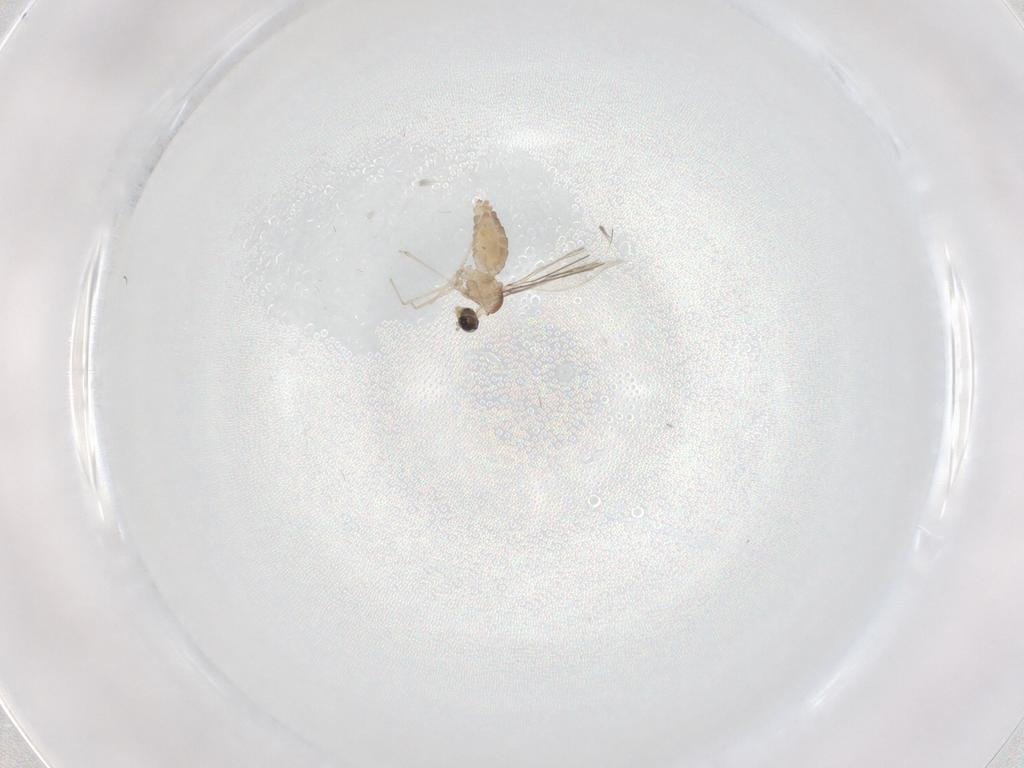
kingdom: Animalia
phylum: Arthropoda
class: Insecta
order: Diptera
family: Cecidomyiidae
